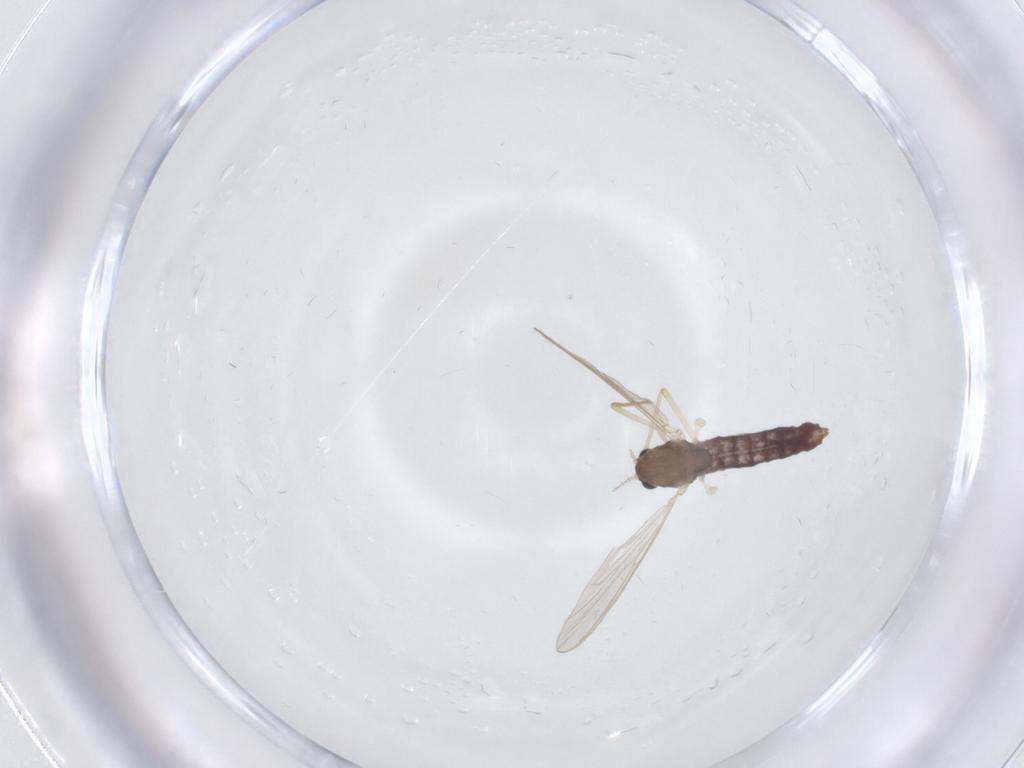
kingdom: Animalia
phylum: Arthropoda
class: Insecta
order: Diptera
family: Chironomidae
